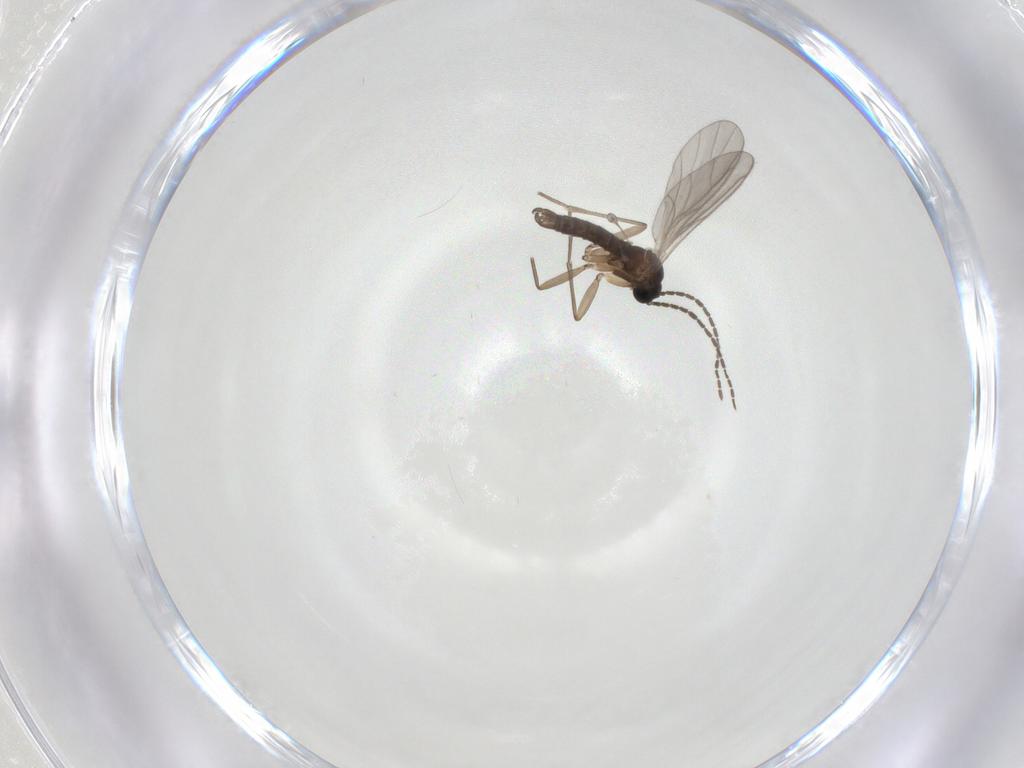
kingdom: Animalia
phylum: Arthropoda
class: Insecta
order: Diptera
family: Sciaridae
